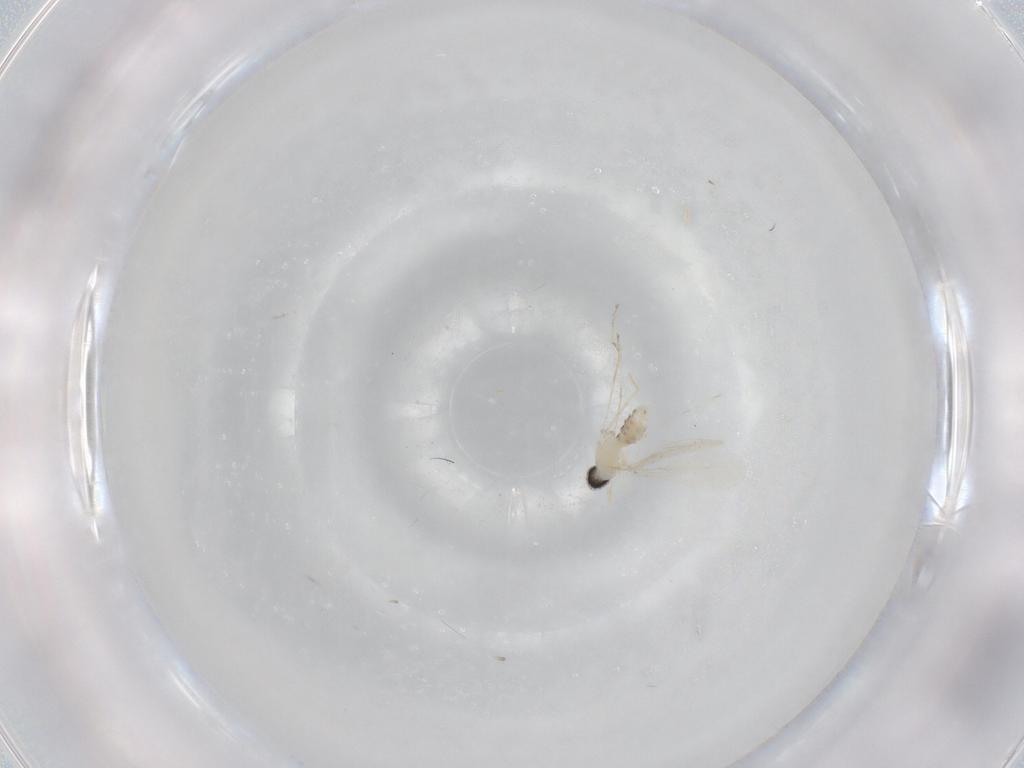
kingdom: Animalia
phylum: Arthropoda
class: Insecta
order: Diptera
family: Cecidomyiidae
